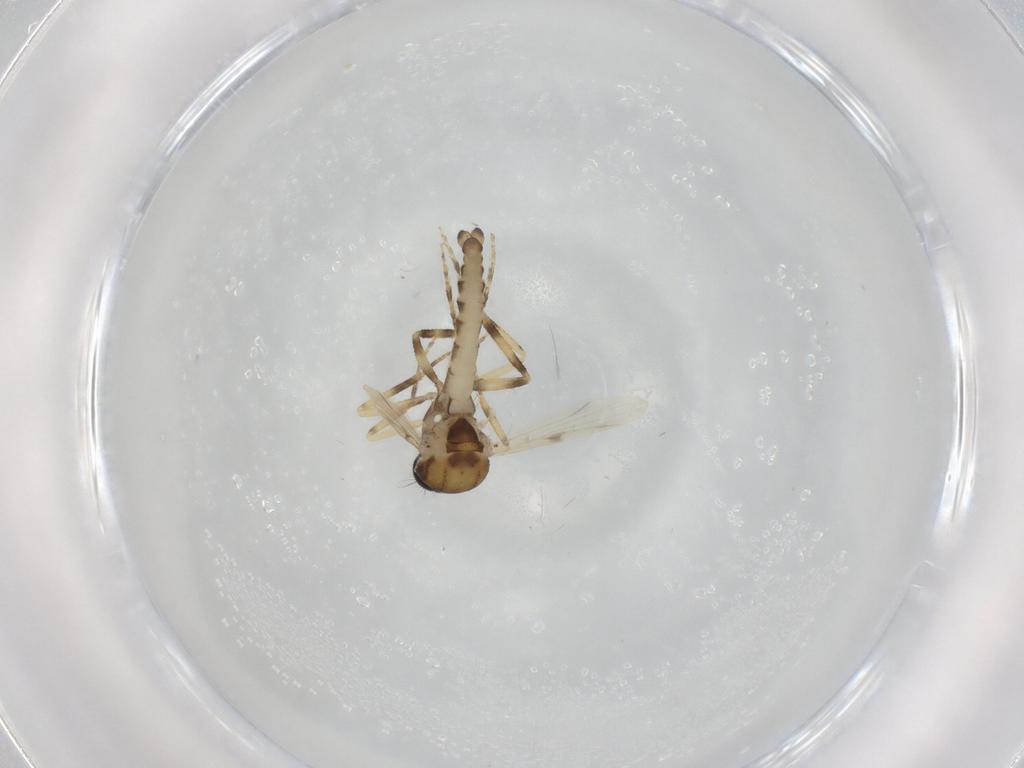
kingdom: Animalia
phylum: Arthropoda
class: Insecta
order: Diptera
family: Ceratopogonidae
